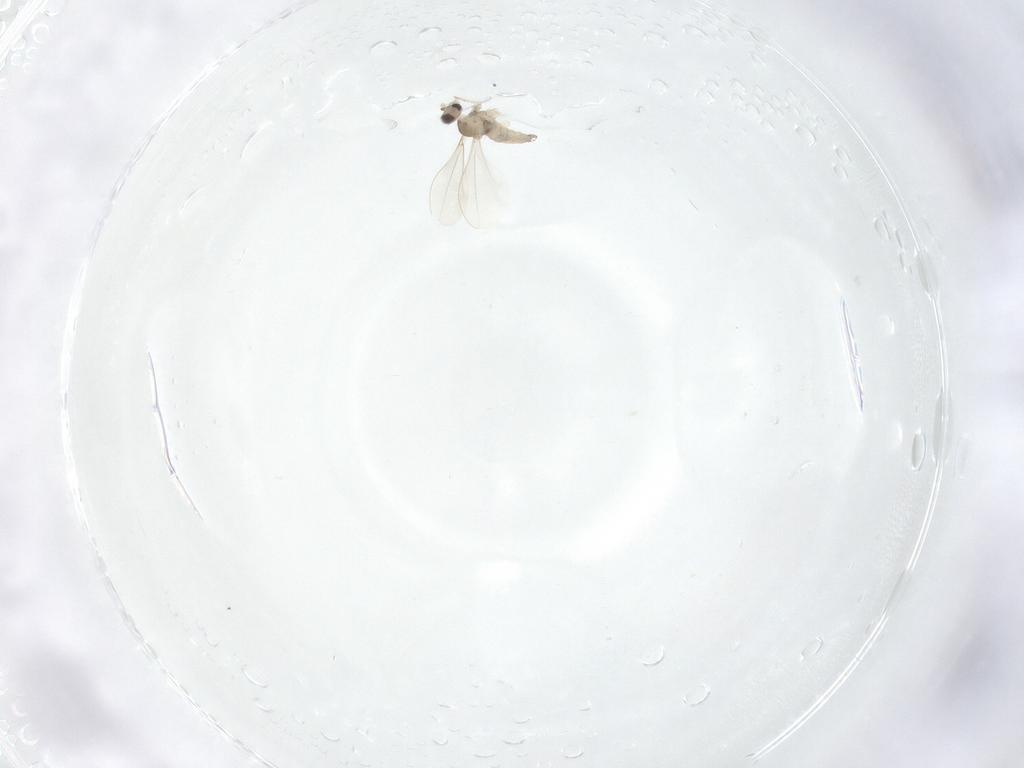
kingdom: Animalia
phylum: Arthropoda
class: Insecta
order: Diptera
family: Cecidomyiidae
